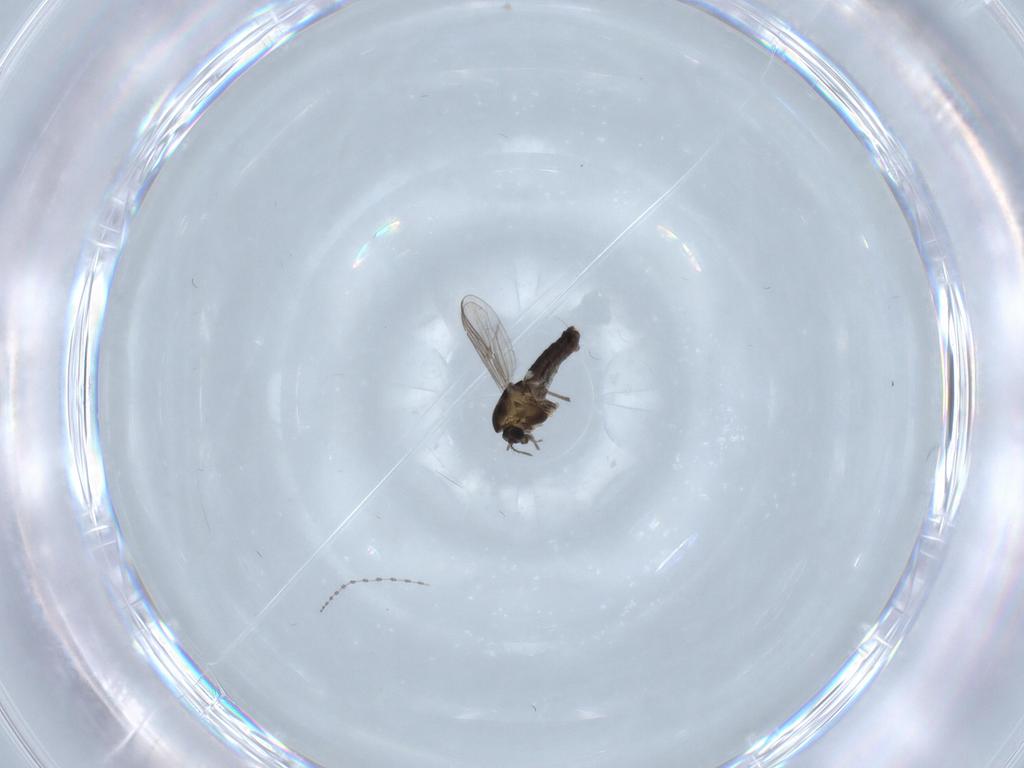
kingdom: Animalia
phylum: Arthropoda
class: Insecta
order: Diptera
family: Chironomidae
